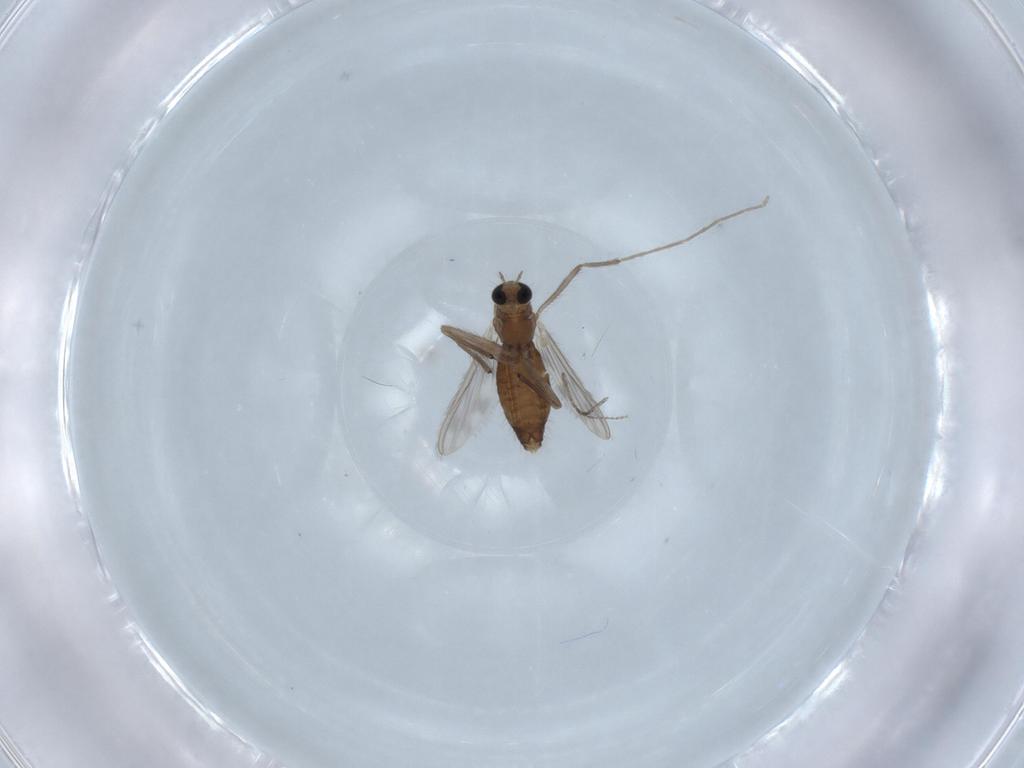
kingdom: Animalia
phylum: Arthropoda
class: Insecta
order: Diptera
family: Chironomidae
